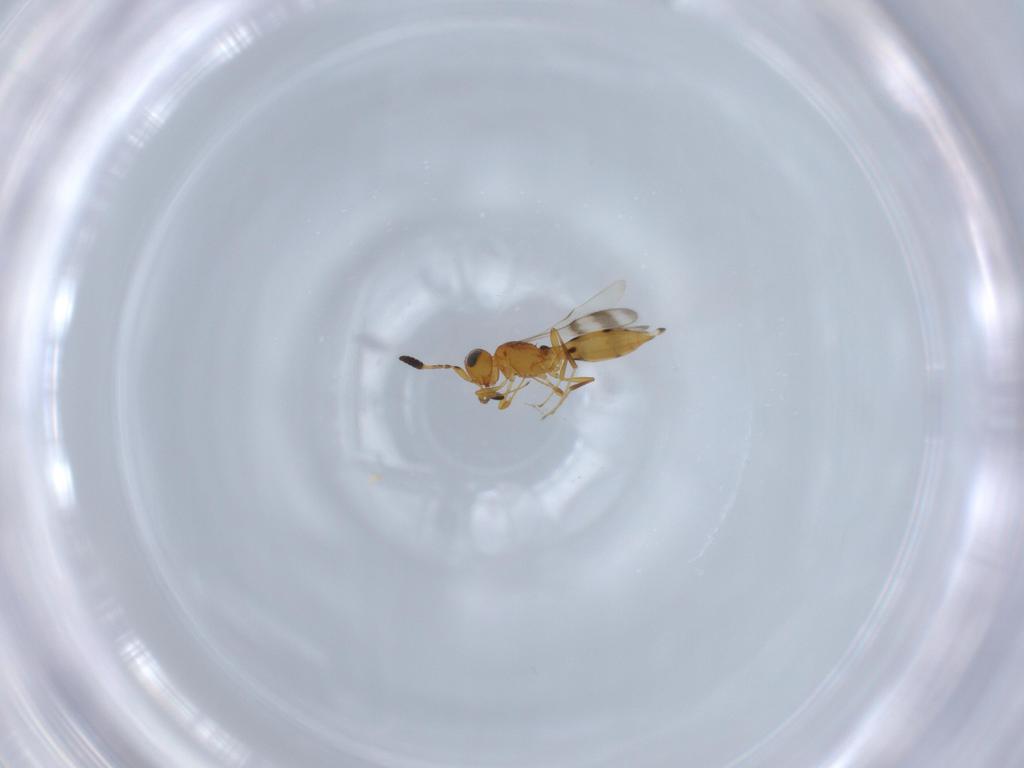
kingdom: Animalia
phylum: Arthropoda
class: Insecta
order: Hymenoptera
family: Scelionidae
